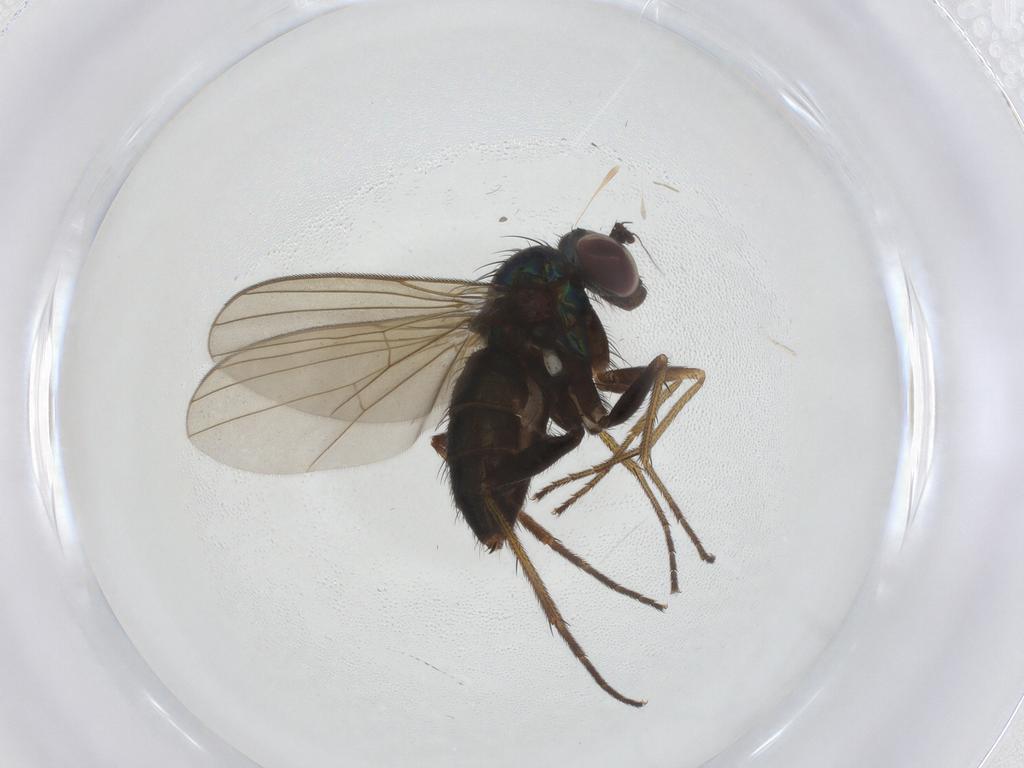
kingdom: Animalia
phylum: Arthropoda
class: Insecta
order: Diptera
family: Dolichopodidae
